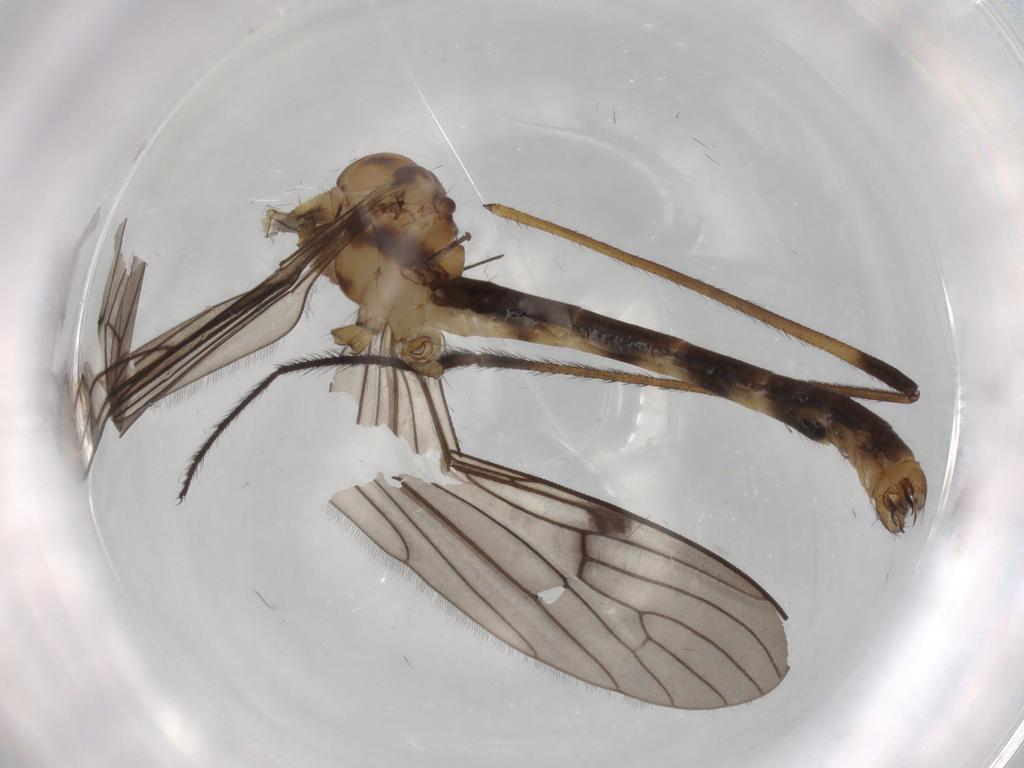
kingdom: Animalia
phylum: Arthropoda
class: Insecta
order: Diptera
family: Limoniidae
